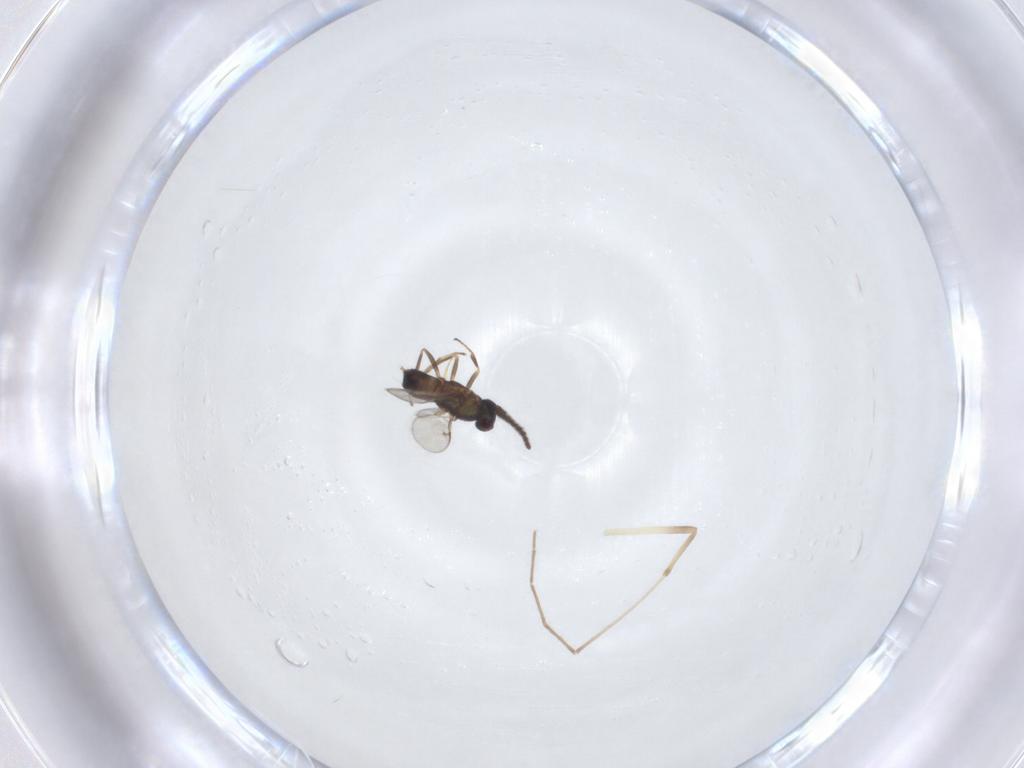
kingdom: Animalia
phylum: Arthropoda
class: Insecta
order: Hymenoptera
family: Encyrtidae
